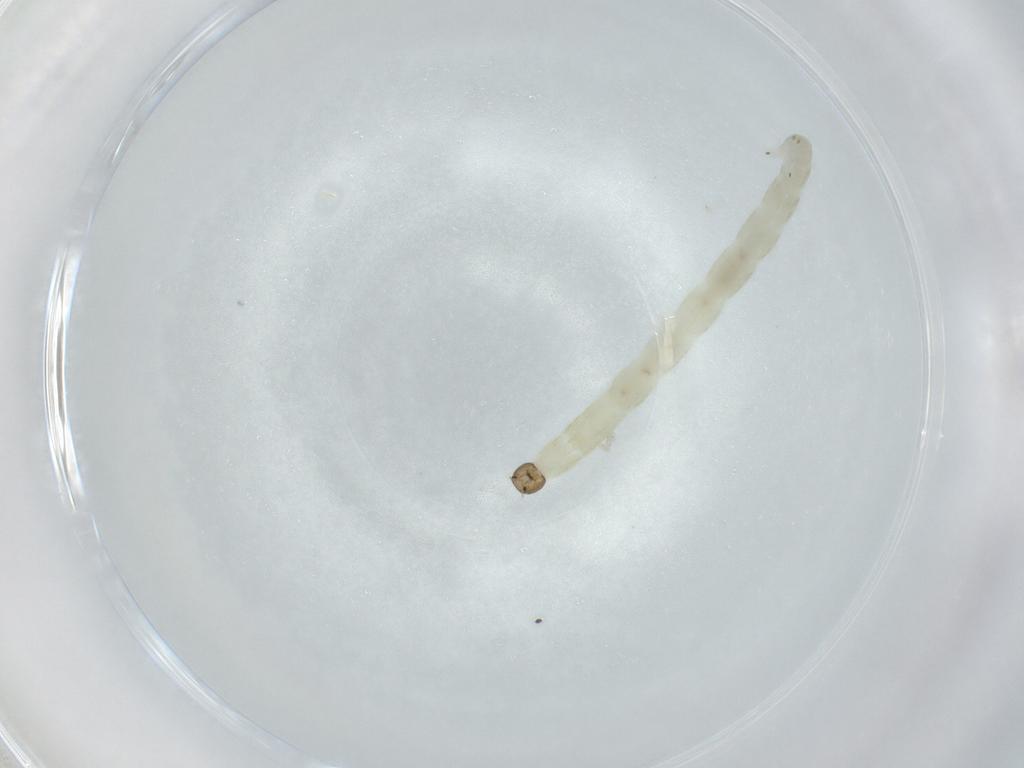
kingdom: Animalia
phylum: Arthropoda
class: Insecta
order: Diptera
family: Chironomidae
